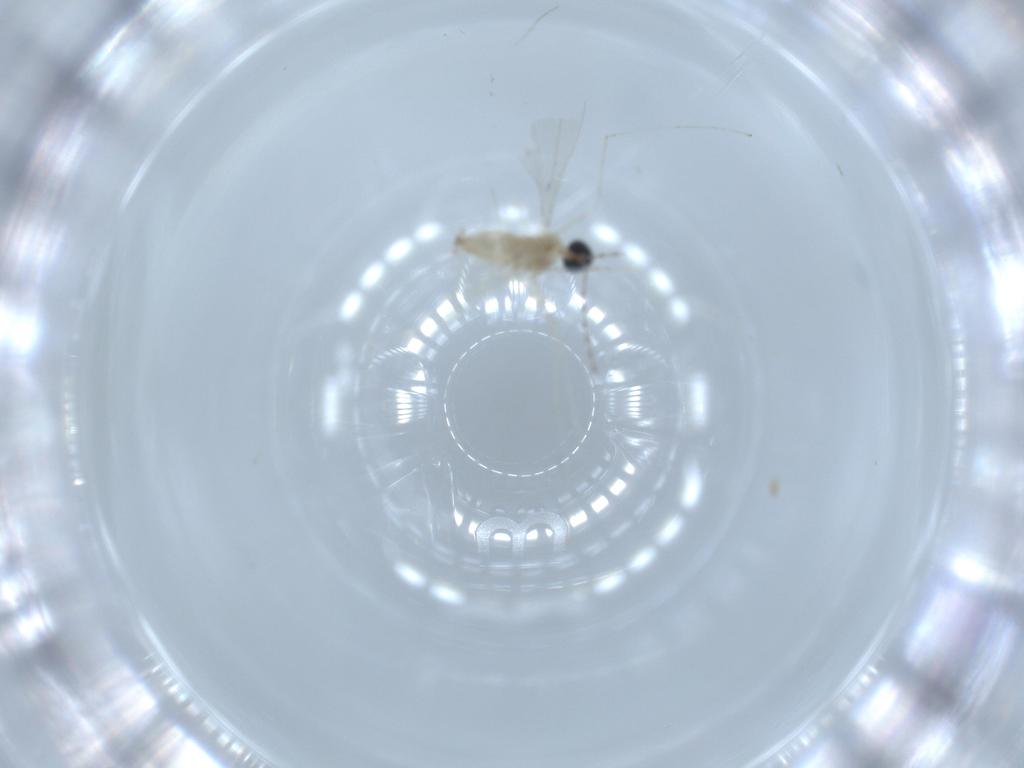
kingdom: Animalia
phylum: Arthropoda
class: Insecta
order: Diptera
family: Cecidomyiidae
